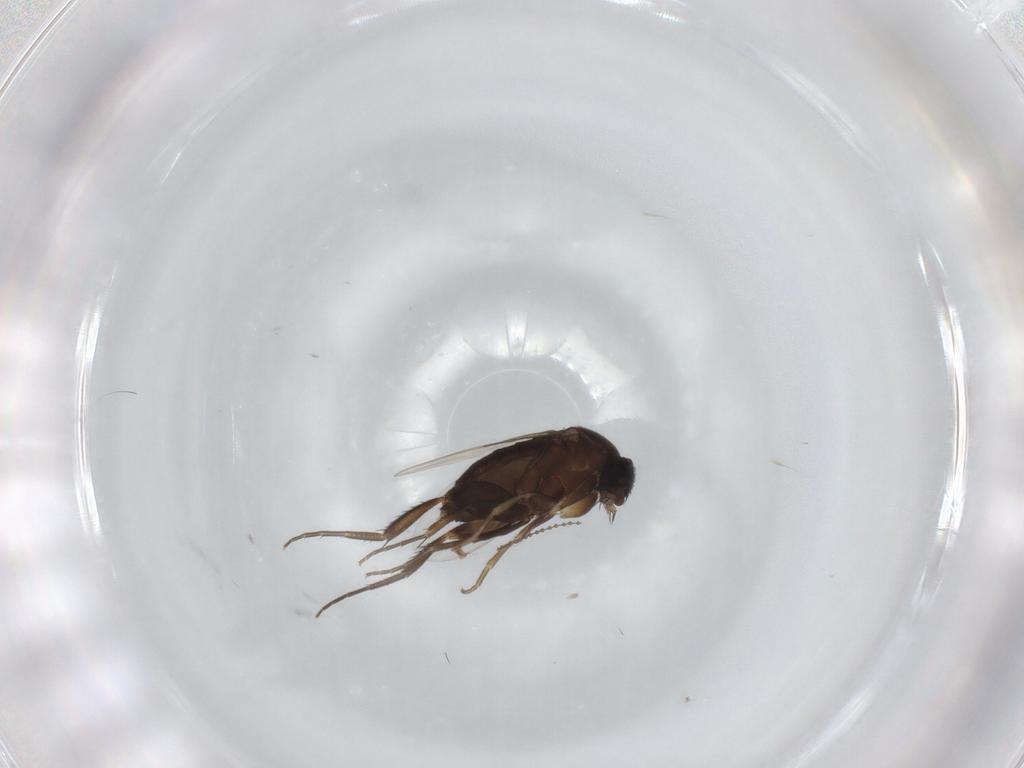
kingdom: Animalia
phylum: Arthropoda
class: Insecta
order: Diptera
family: Phoridae
